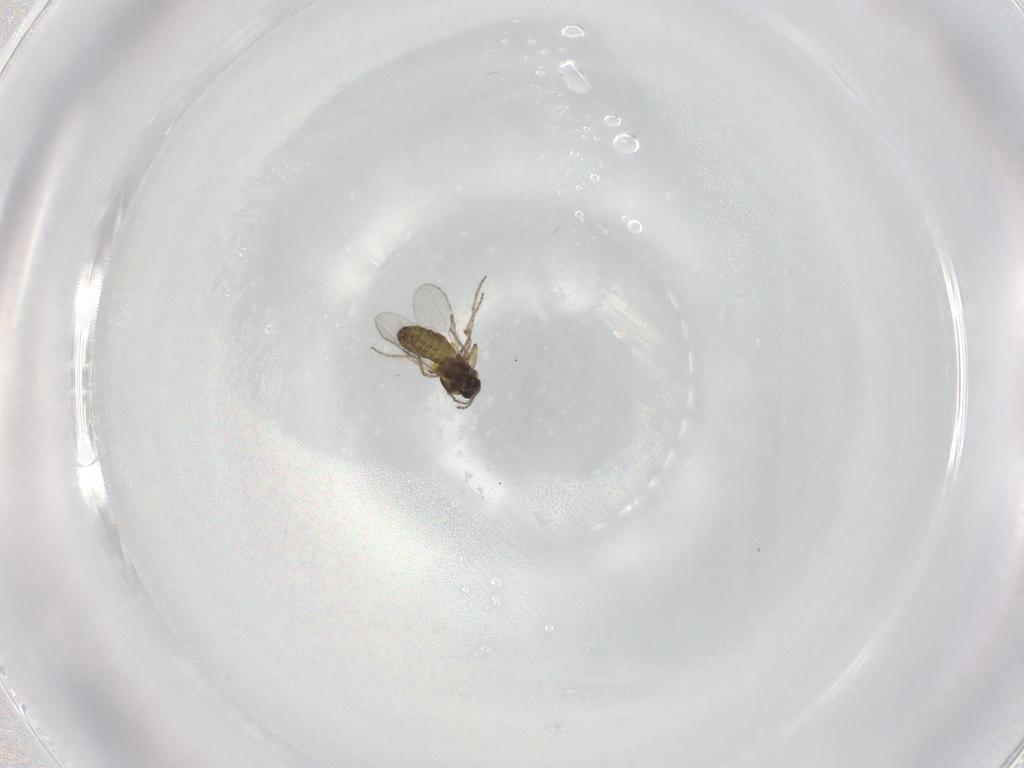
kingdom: Animalia
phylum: Arthropoda
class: Insecta
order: Diptera
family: Ceratopogonidae
